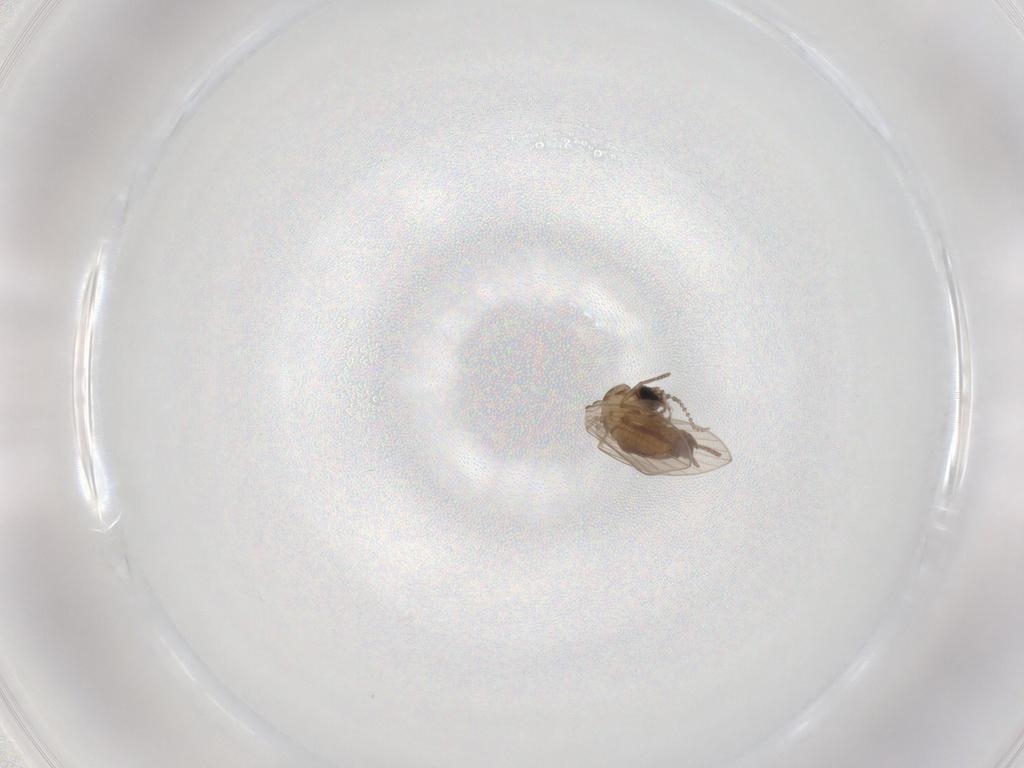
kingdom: Animalia
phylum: Arthropoda
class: Insecta
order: Diptera
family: Psychodidae
